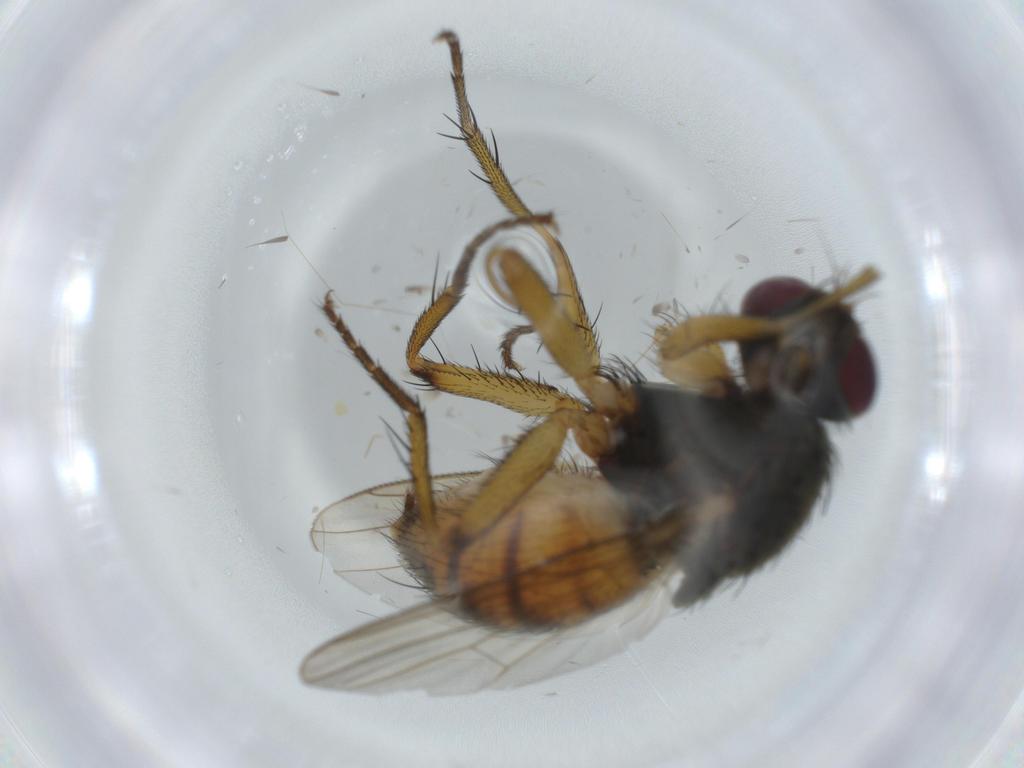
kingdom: Animalia
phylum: Arthropoda
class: Insecta
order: Diptera
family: Muscidae
